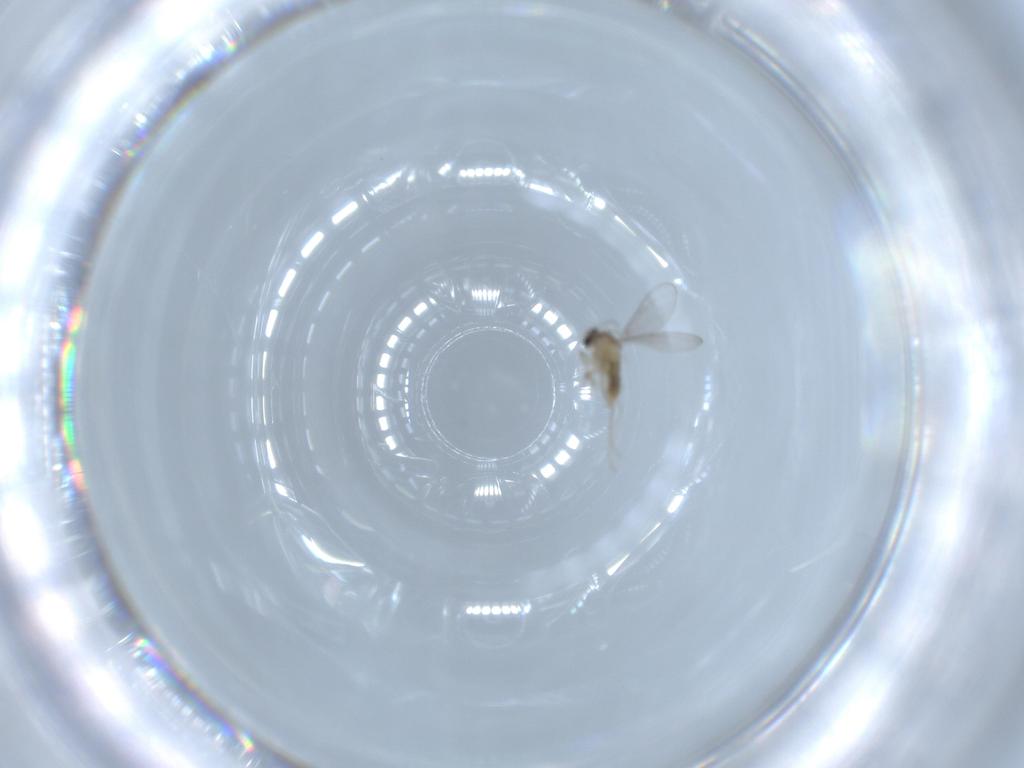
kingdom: Animalia
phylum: Arthropoda
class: Insecta
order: Diptera
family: Cecidomyiidae
